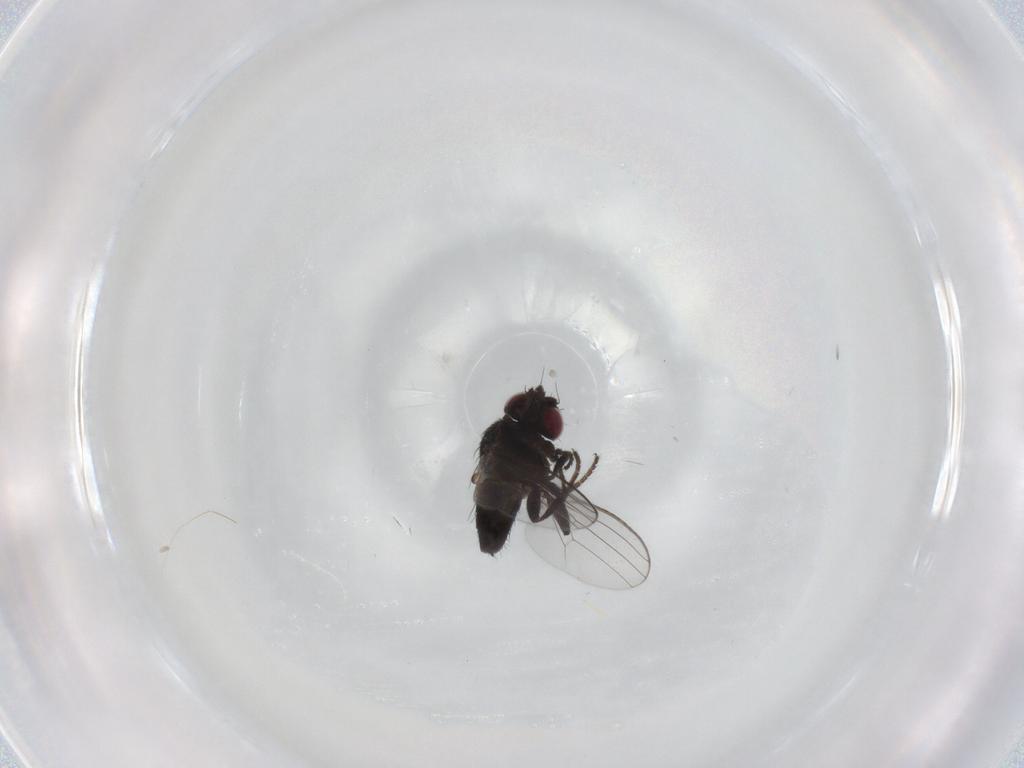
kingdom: Animalia
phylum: Arthropoda
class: Insecta
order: Diptera
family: Milichiidae
